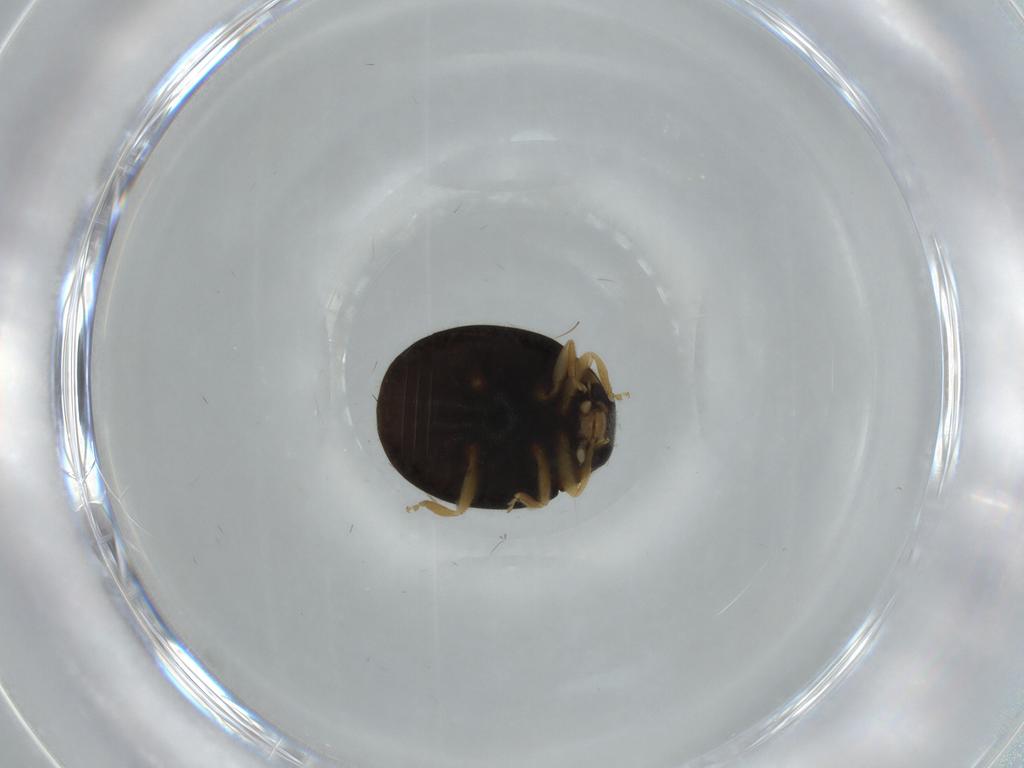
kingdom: Animalia
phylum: Arthropoda
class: Insecta
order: Coleoptera
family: Coccinellidae
